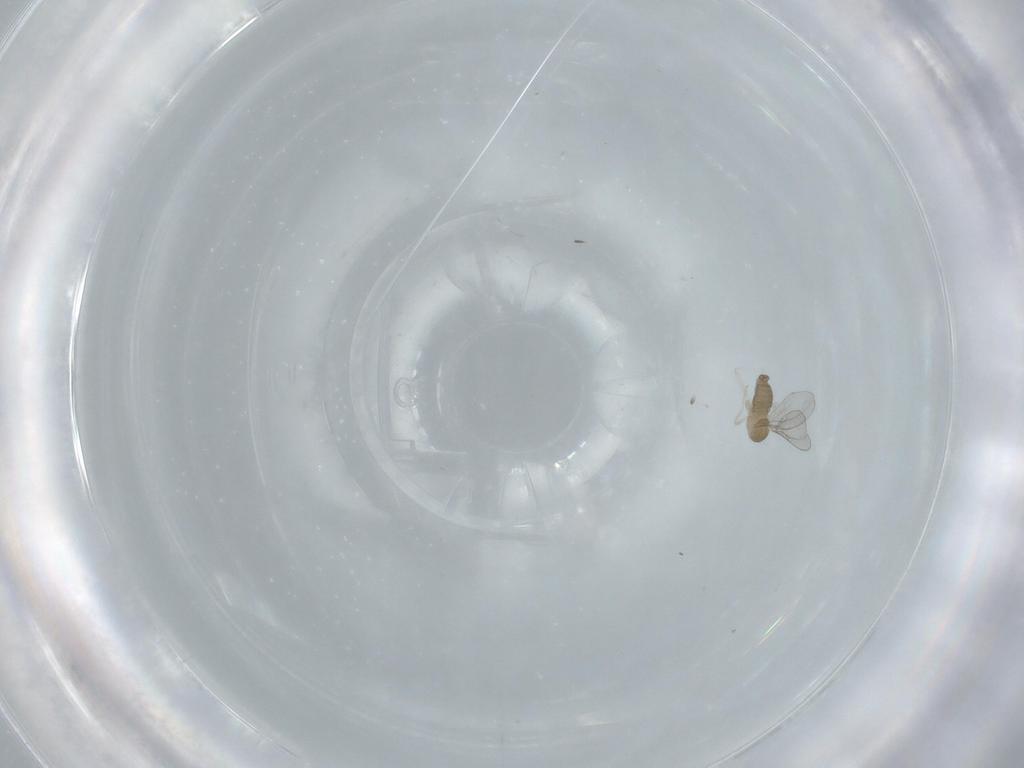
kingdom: Animalia
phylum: Arthropoda
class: Insecta
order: Diptera
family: Cecidomyiidae
